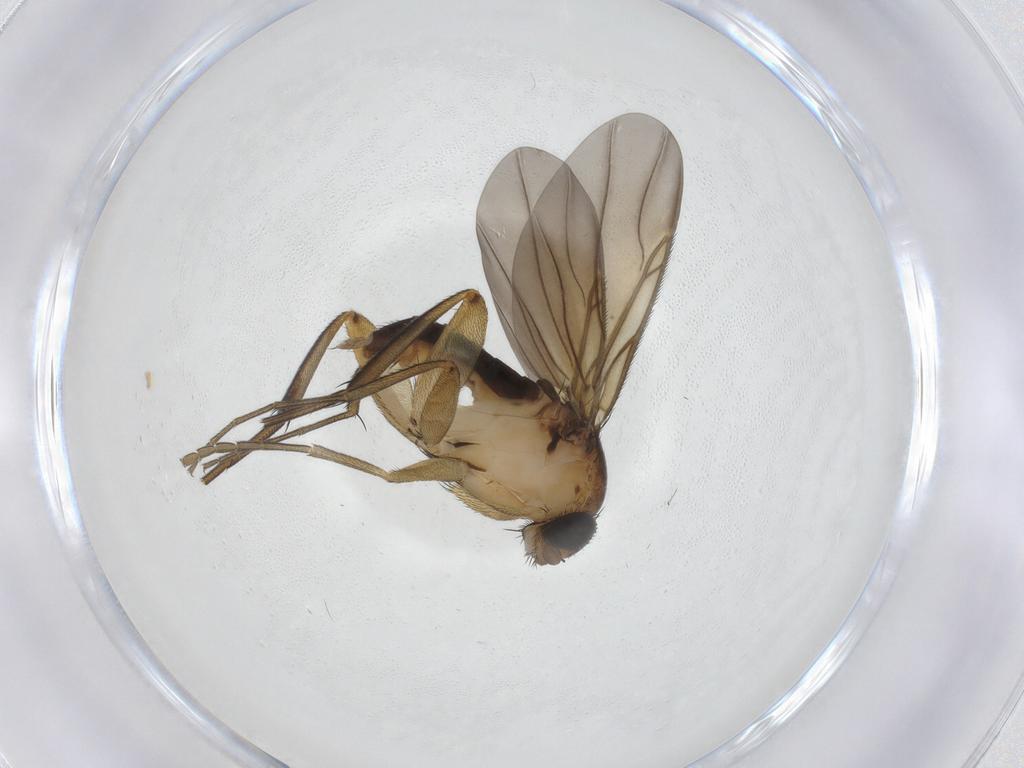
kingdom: Animalia
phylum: Arthropoda
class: Insecta
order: Diptera
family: Phoridae
